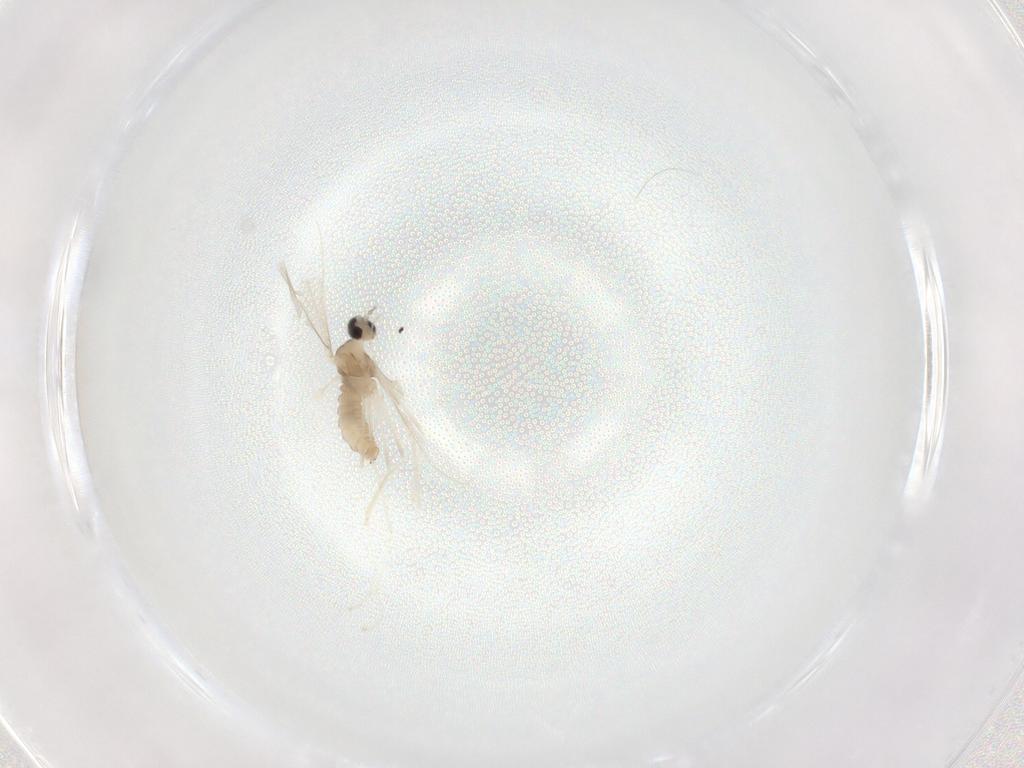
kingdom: Animalia
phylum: Arthropoda
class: Insecta
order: Diptera
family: Cecidomyiidae
